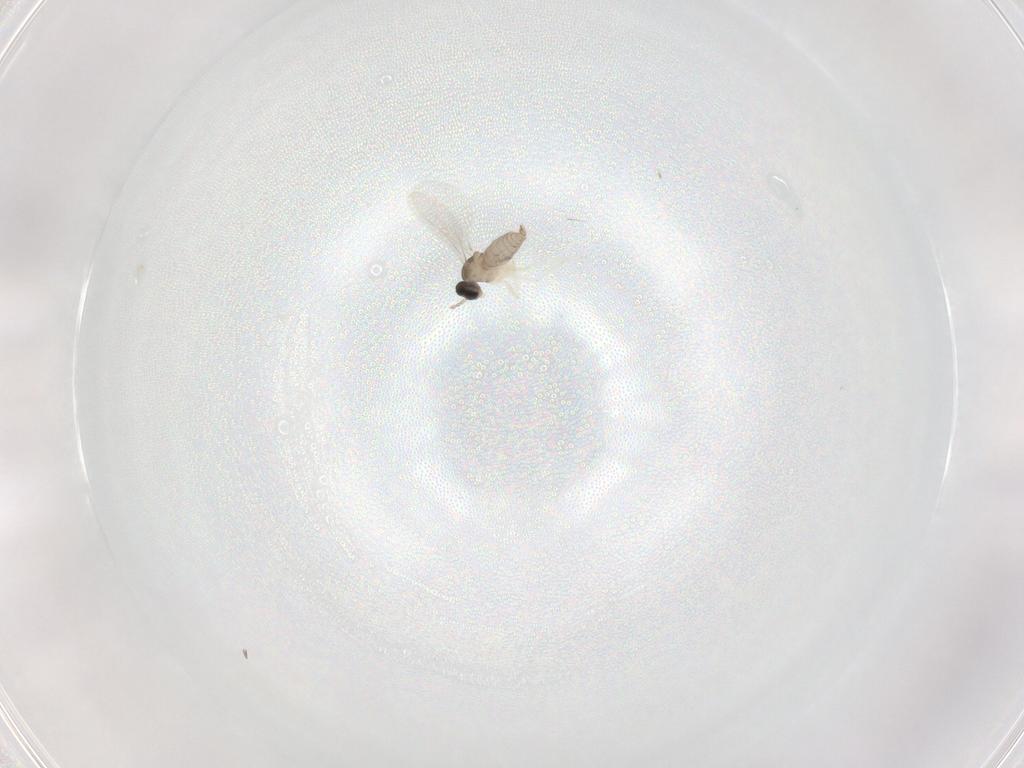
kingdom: Animalia
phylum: Arthropoda
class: Insecta
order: Diptera
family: Cecidomyiidae
